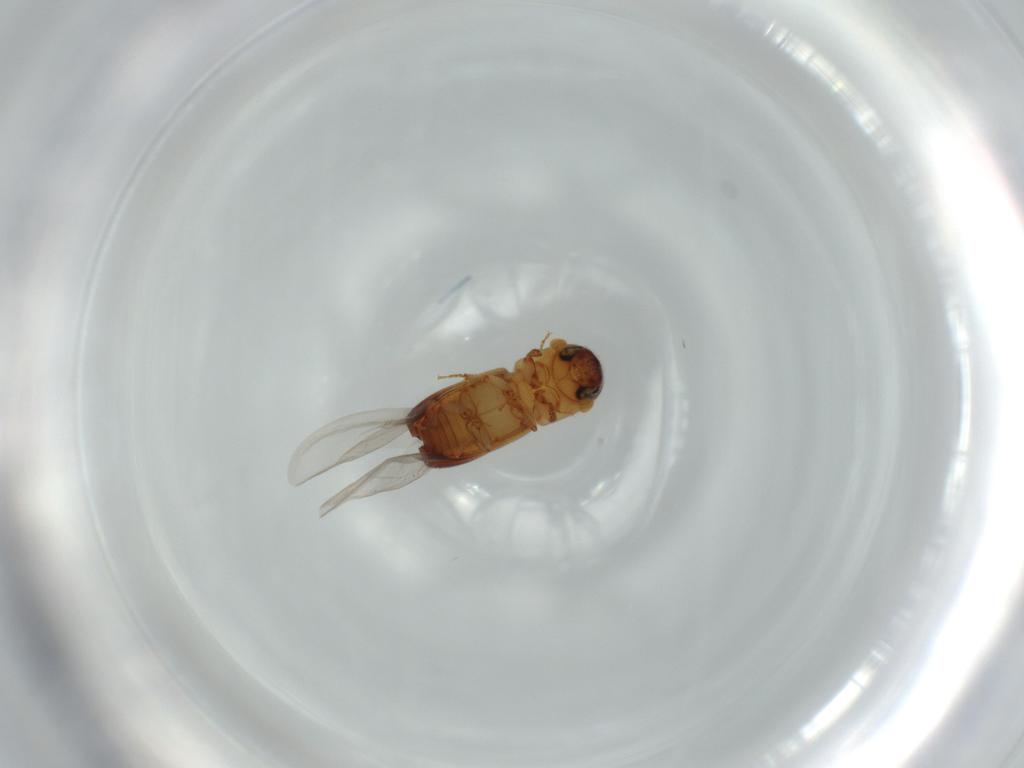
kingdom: Animalia
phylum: Arthropoda
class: Insecta
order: Coleoptera
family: Curculionidae
